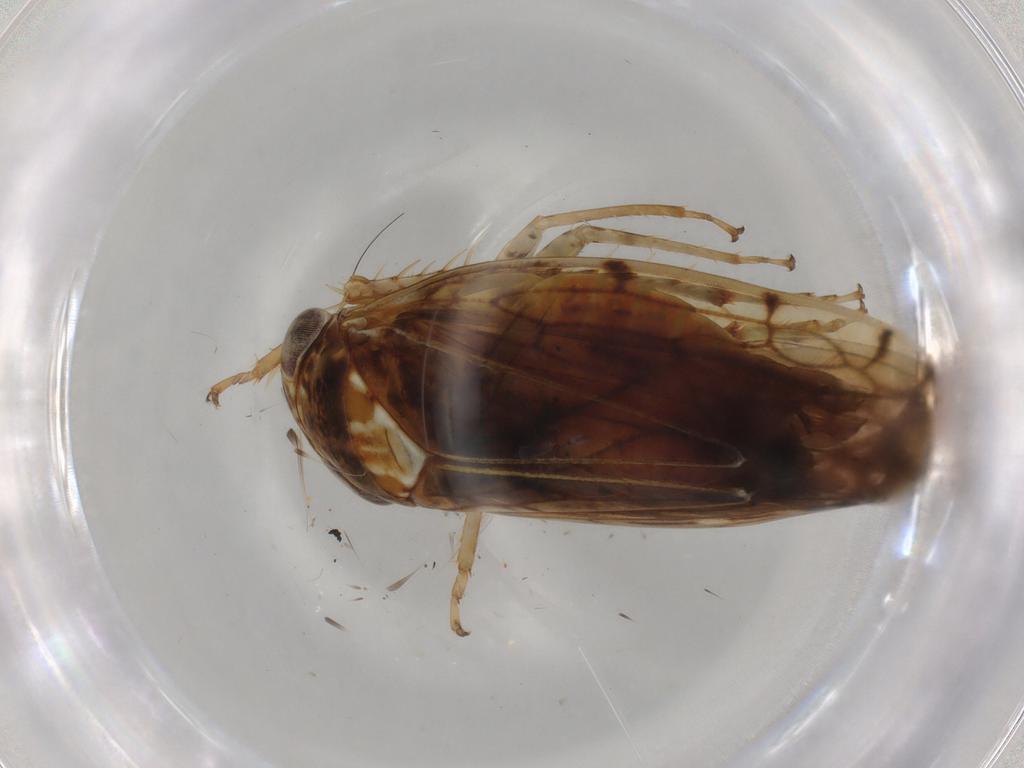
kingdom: Animalia
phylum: Arthropoda
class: Insecta
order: Hemiptera
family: Cicadellidae
